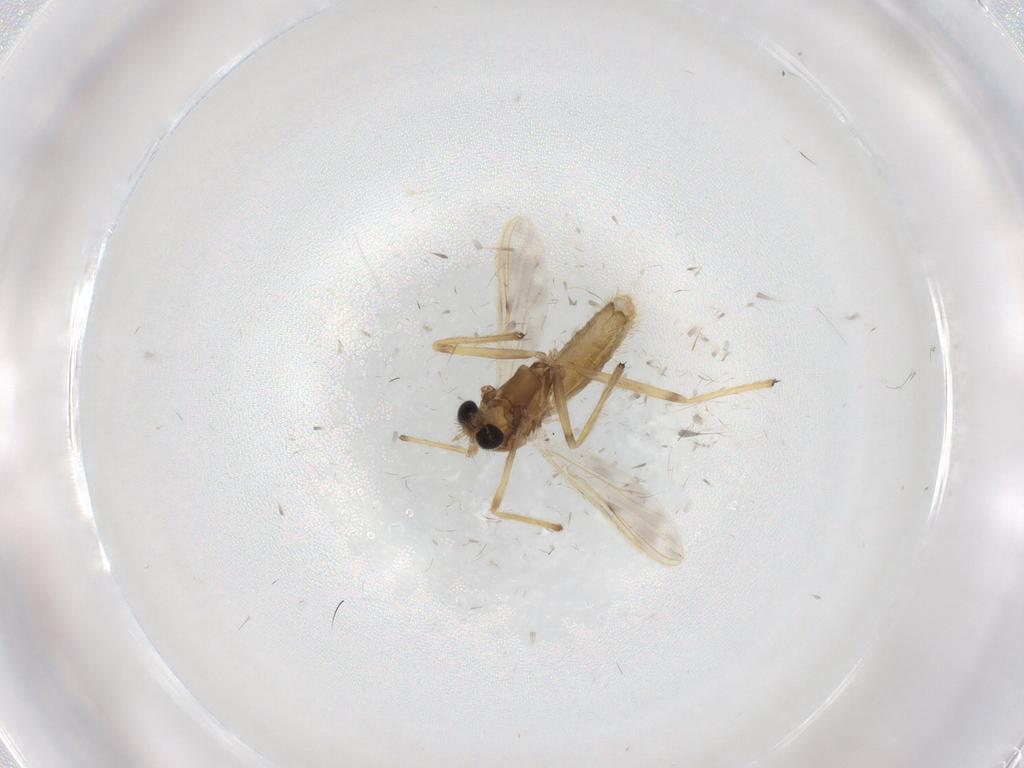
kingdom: Animalia
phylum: Arthropoda
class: Insecta
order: Diptera
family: Chironomidae
